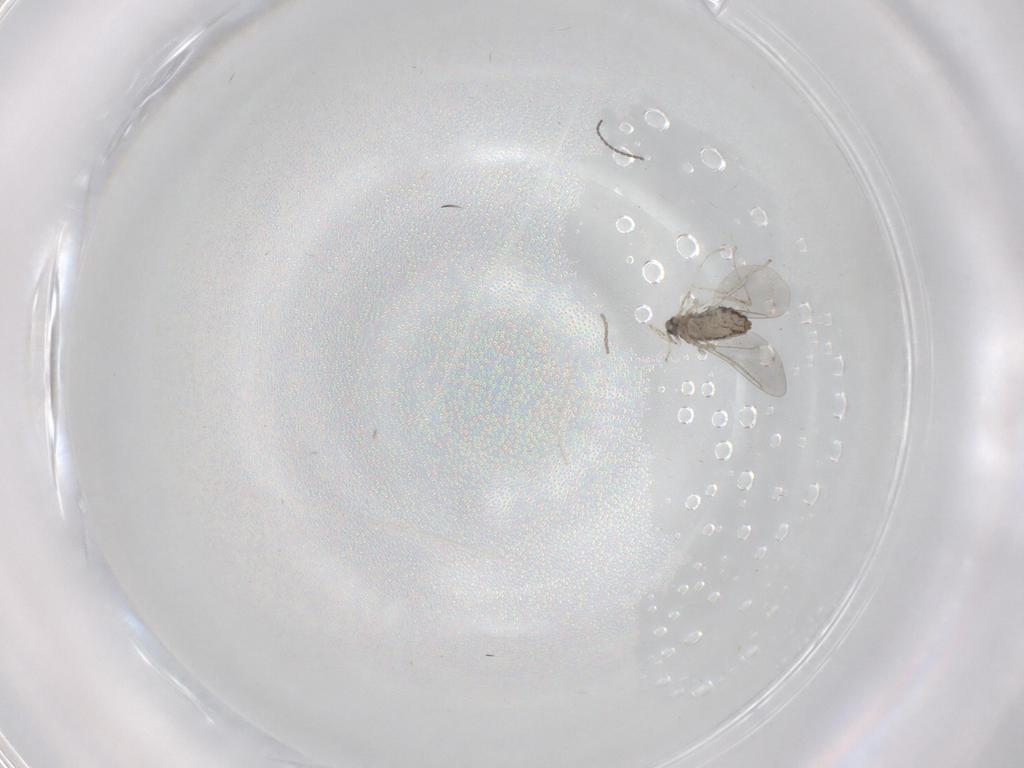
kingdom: Animalia
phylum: Arthropoda
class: Insecta
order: Diptera
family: Cecidomyiidae
